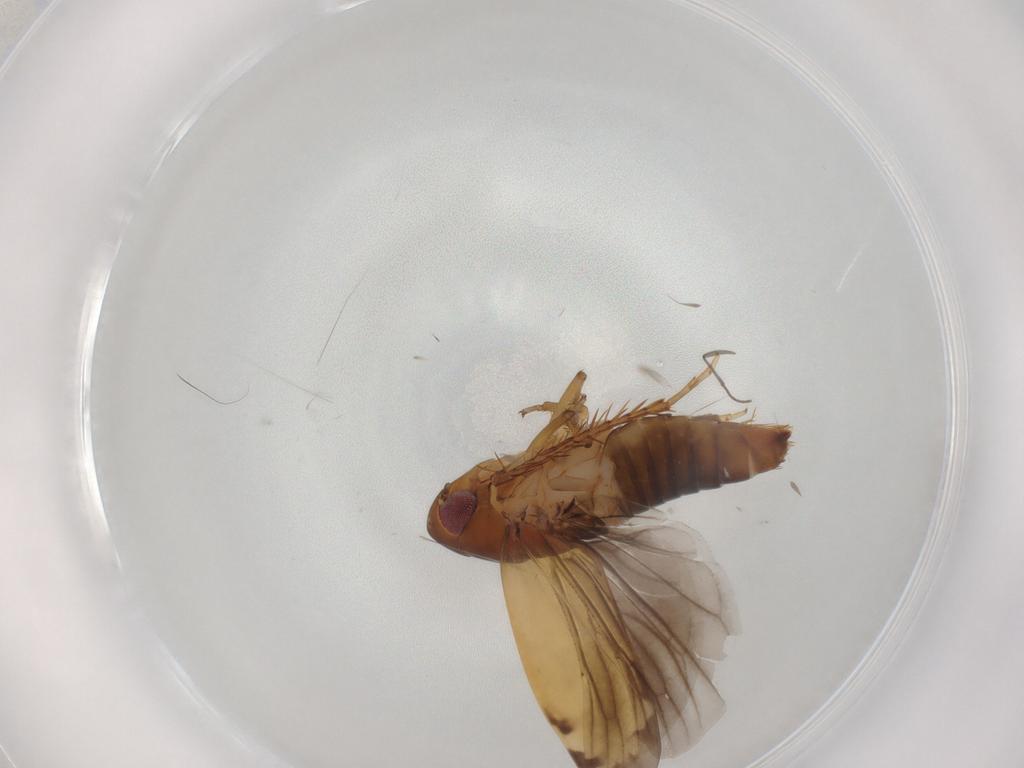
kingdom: Animalia
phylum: Arthropoda
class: Insecta
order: Hemiptera
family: Cicadellidae
